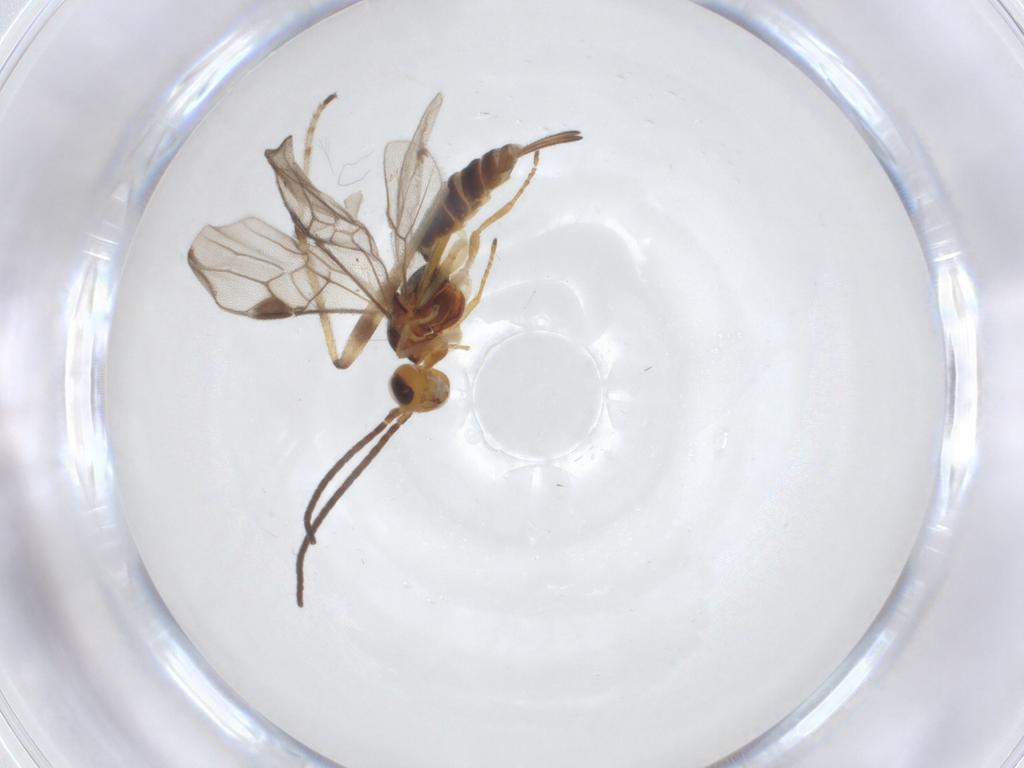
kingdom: Animalia
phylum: Arthropoda
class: Insecta
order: Hymenoptera
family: Braconidae
